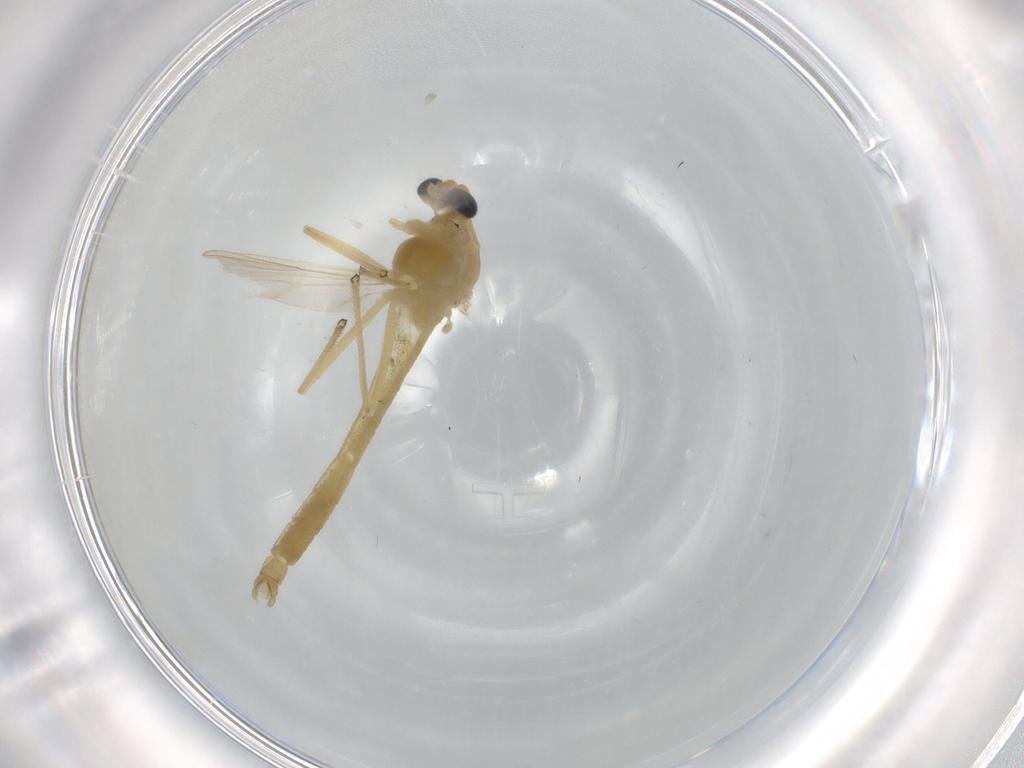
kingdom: Animalia
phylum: Arthropoda
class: Insecta
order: Diptera
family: Chironomidae
